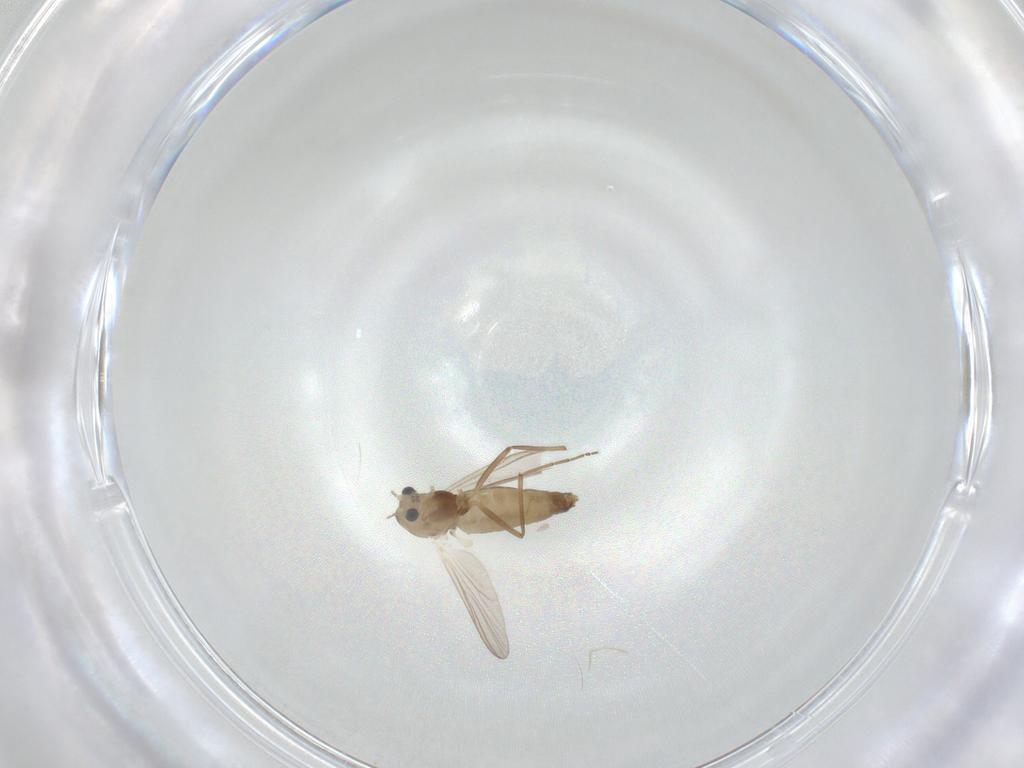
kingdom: Animalia
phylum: Arthropoda
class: Insecta
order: Diptera
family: Chironomidae
